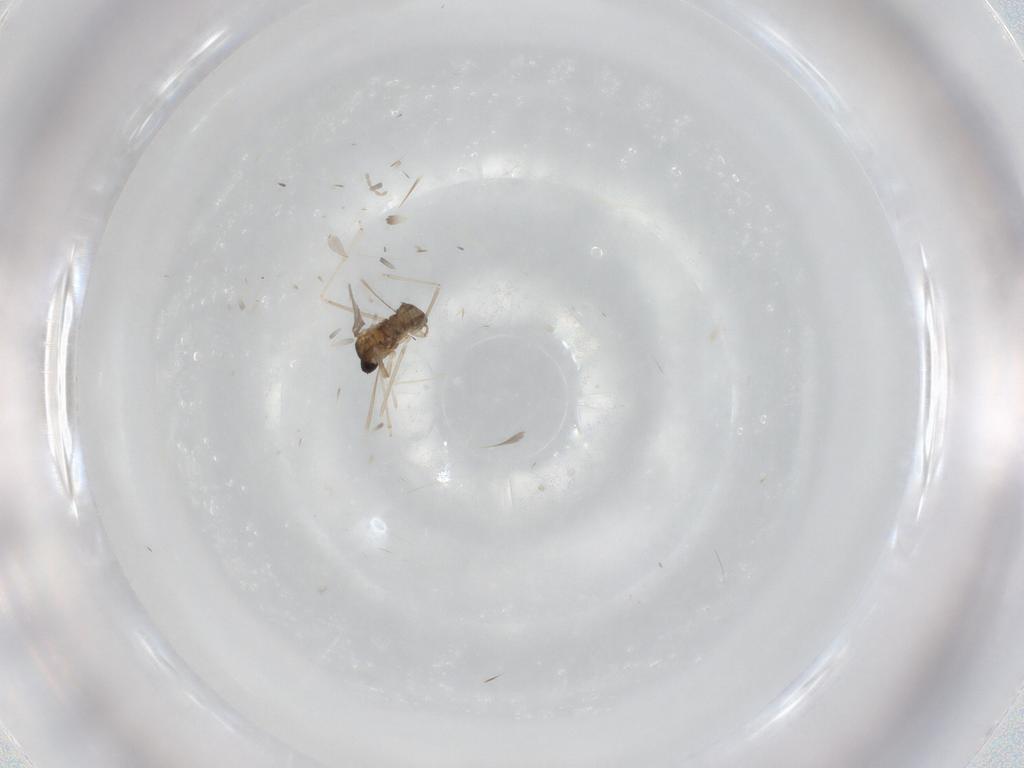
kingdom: Animalia
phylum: Arthropoda
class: Insecta
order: Diptera
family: Cecidomyiidae
